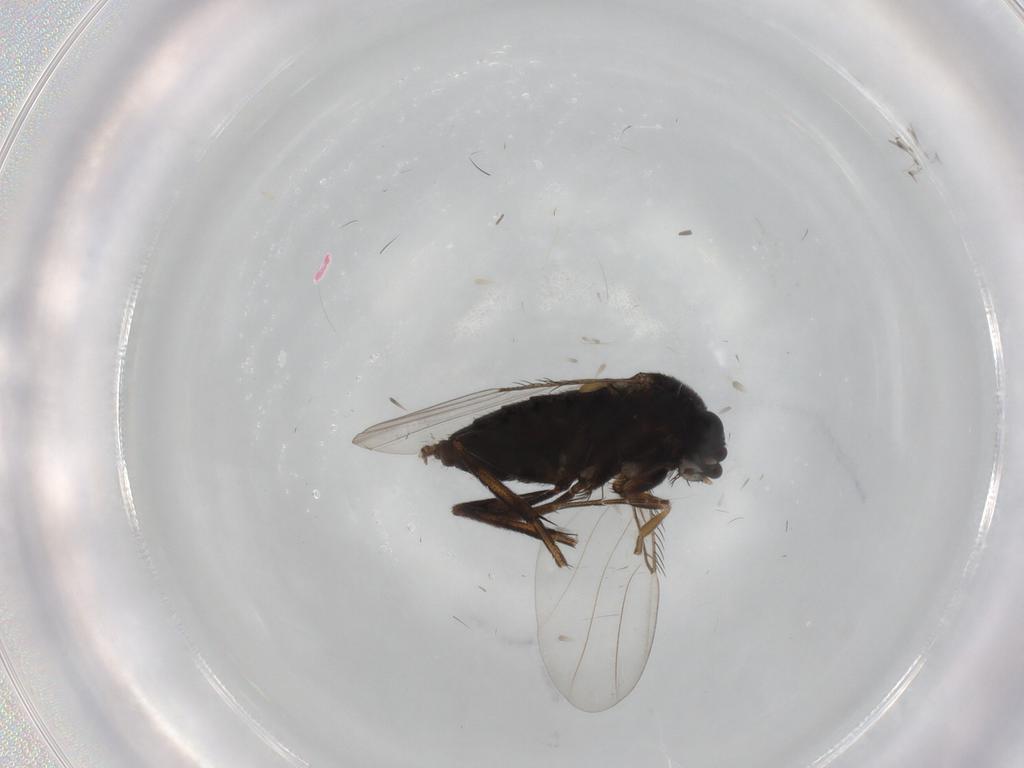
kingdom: Animalia
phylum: Arthropoda
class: Insecta
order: Diptera
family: Phoridae
